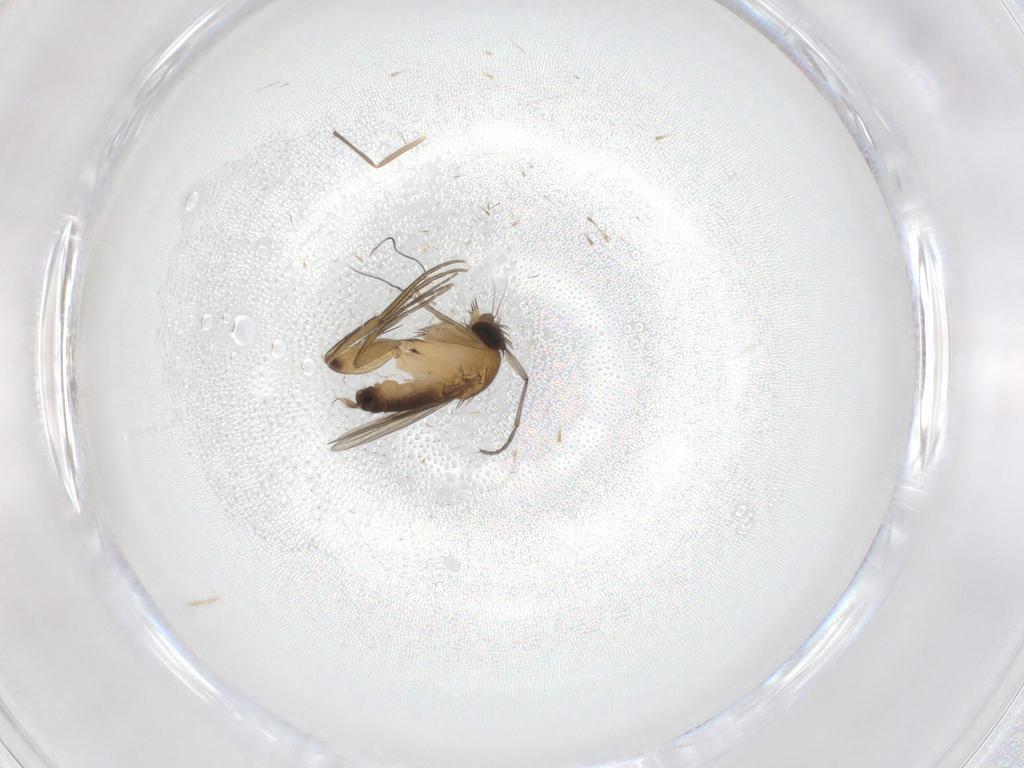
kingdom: Animalia
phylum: Arthropoda
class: Insecta
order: Diptera
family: Phoridae
